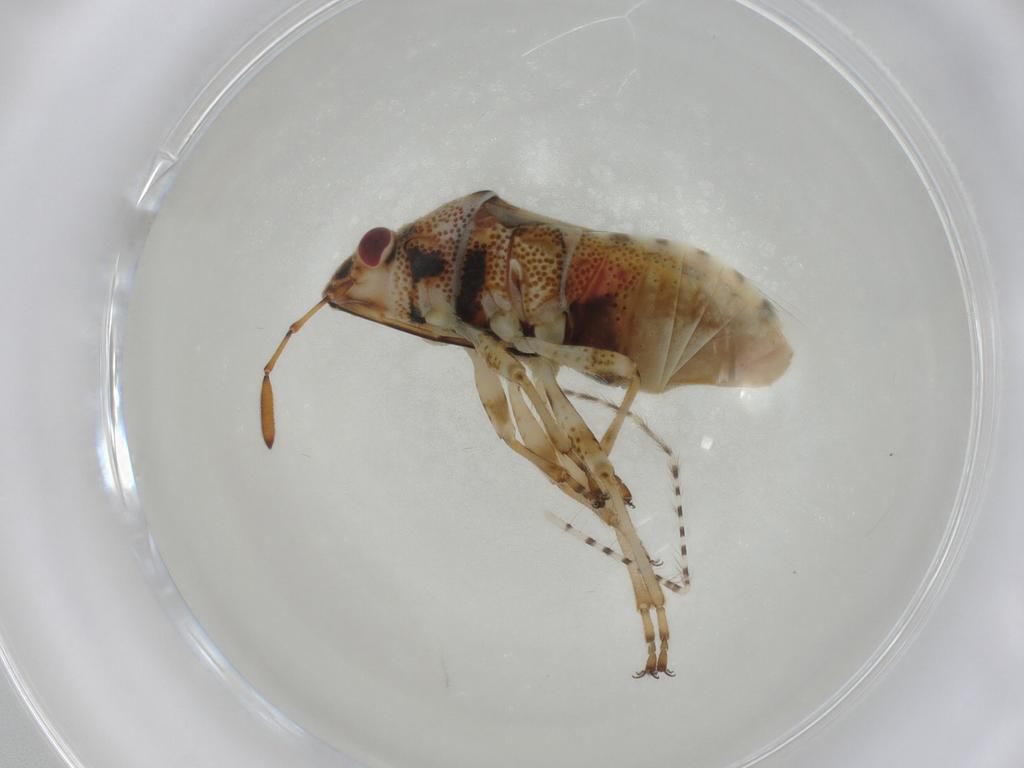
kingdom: Animalia
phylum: Arthropoda
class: Insecta
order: Hemiptera
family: Lygaeidae
